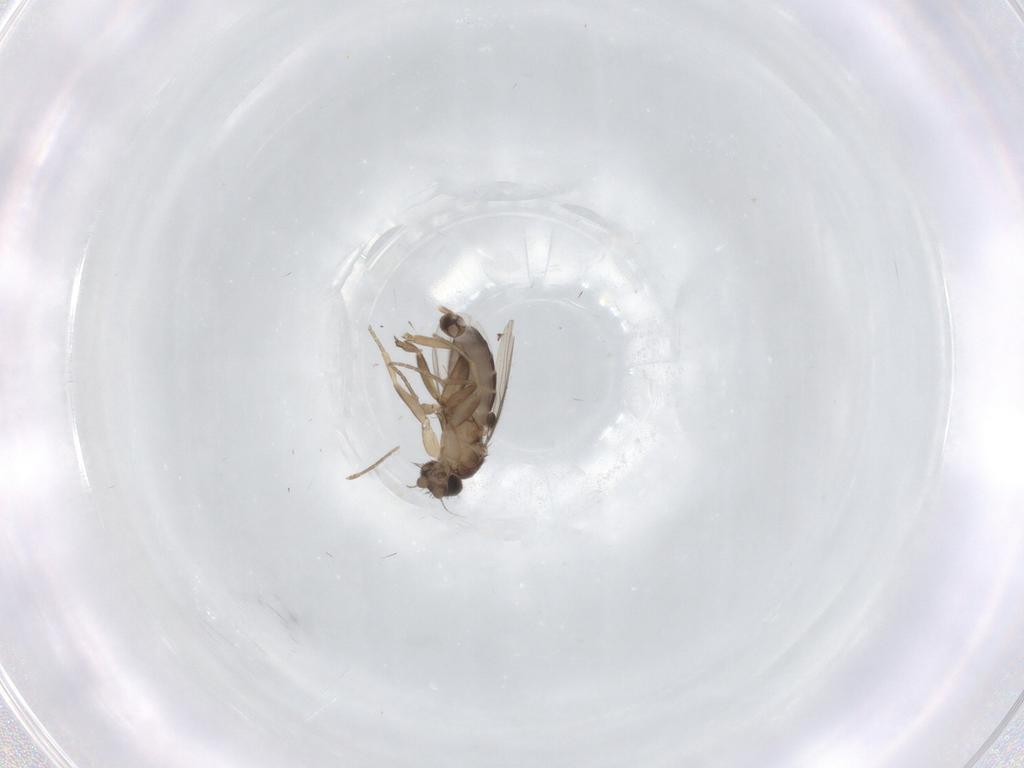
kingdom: Animalia
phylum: Arthropoda
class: Insecta
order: Diptera
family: Phoridae
